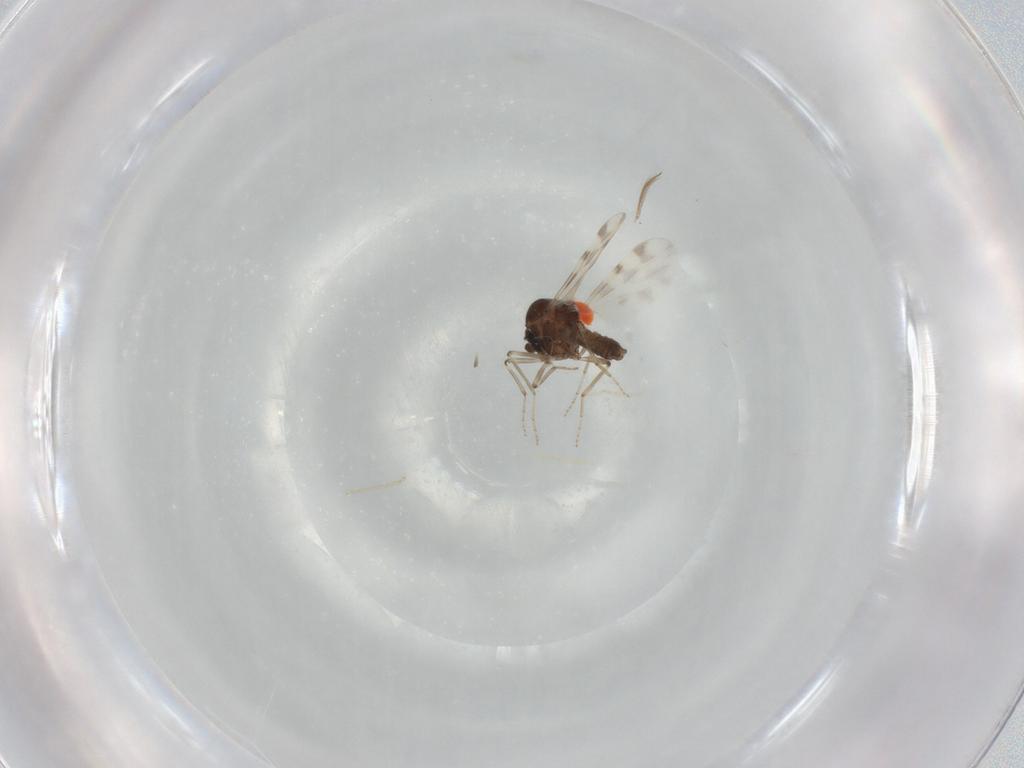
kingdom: Animalia
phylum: Arthropoda
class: Insecta
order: Diptera
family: Ceratopogonidae
